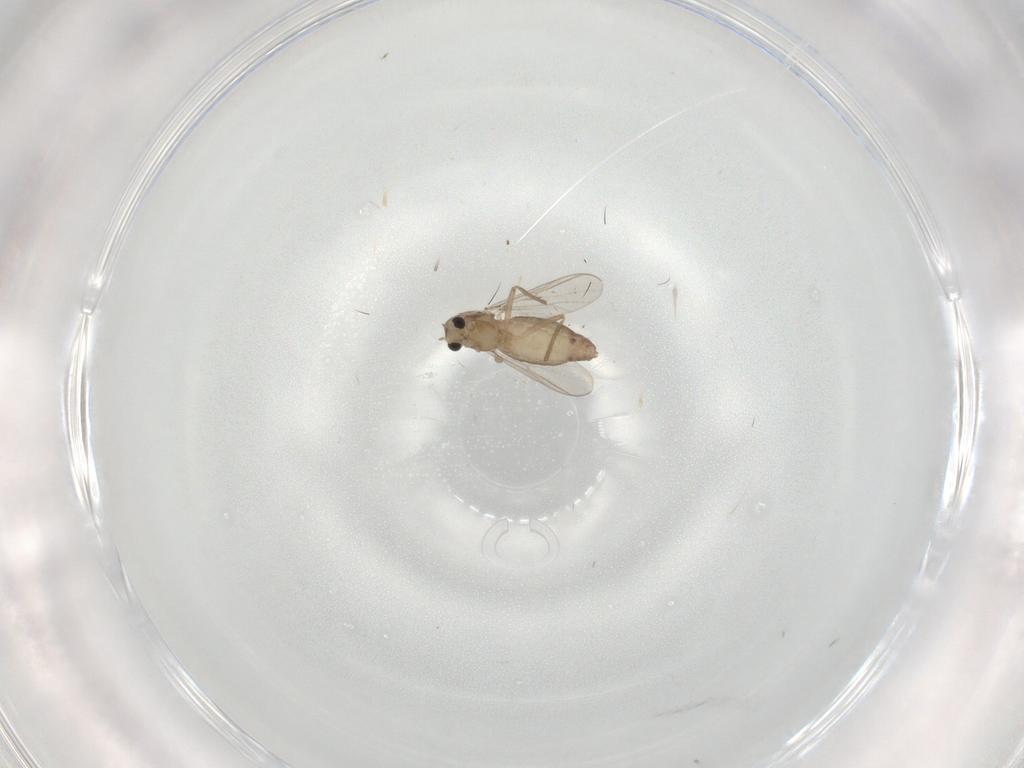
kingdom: Animalia
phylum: Arthropoda
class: Insecta
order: Diptera
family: Chironomidae
